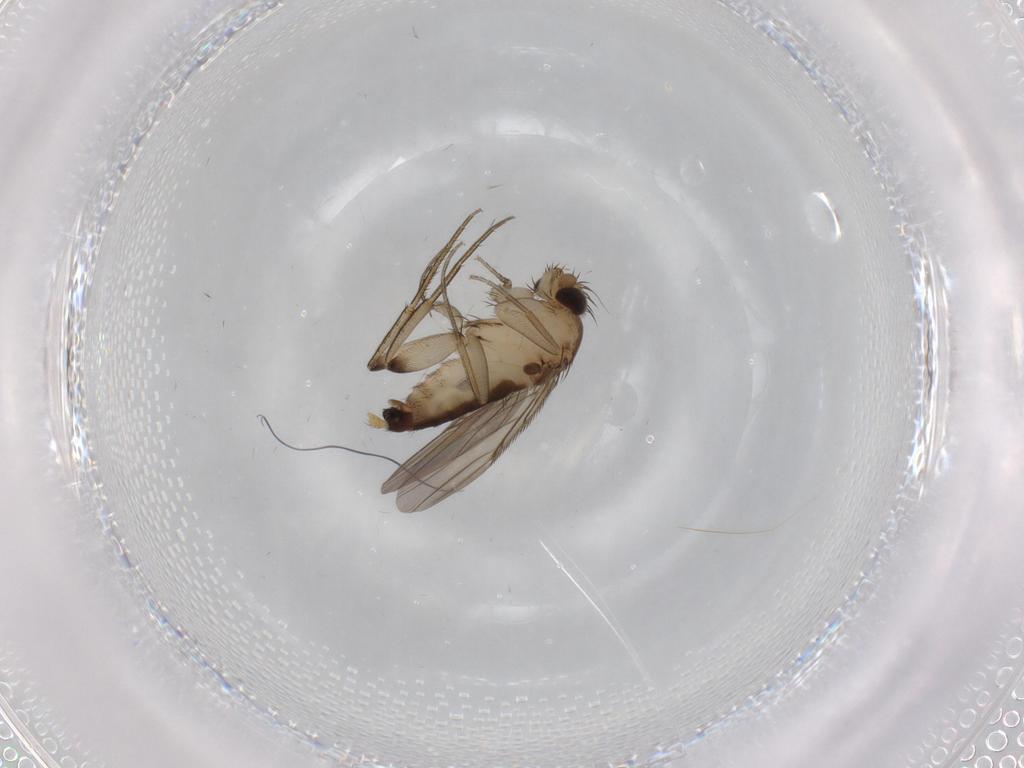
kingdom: Animalia
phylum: Arthropoda
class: Insecta
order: Diptera
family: Phoridae
